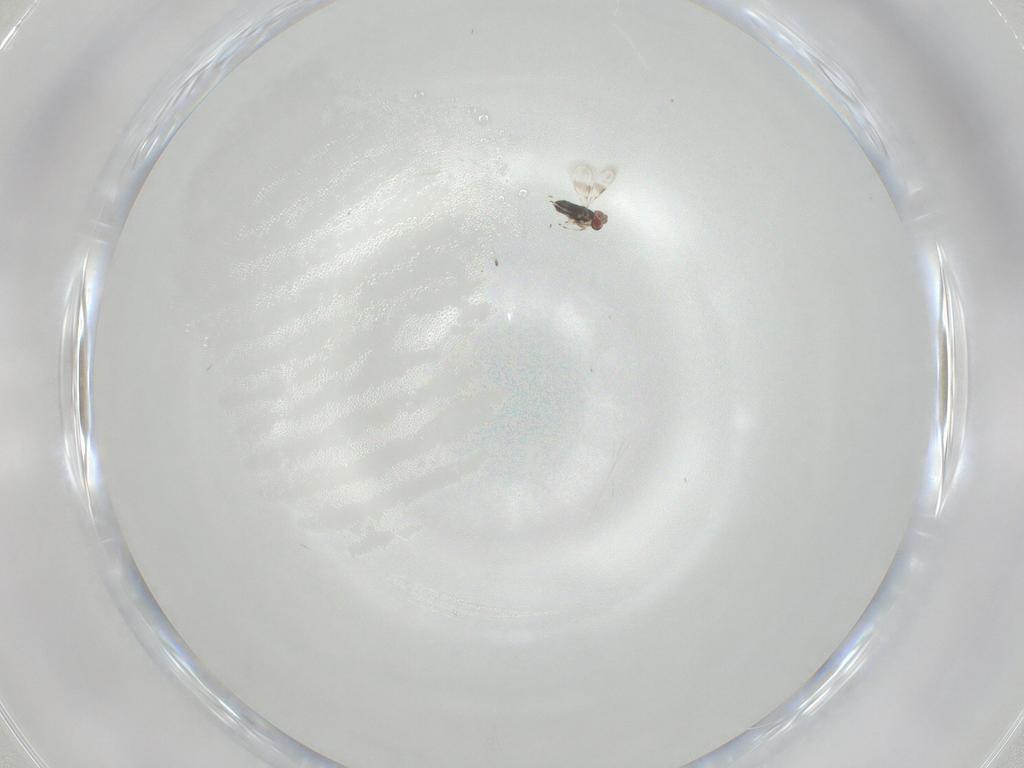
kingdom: Animalia
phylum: Arthropoda
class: Insecta
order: Hymenoptera
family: Azotidae
